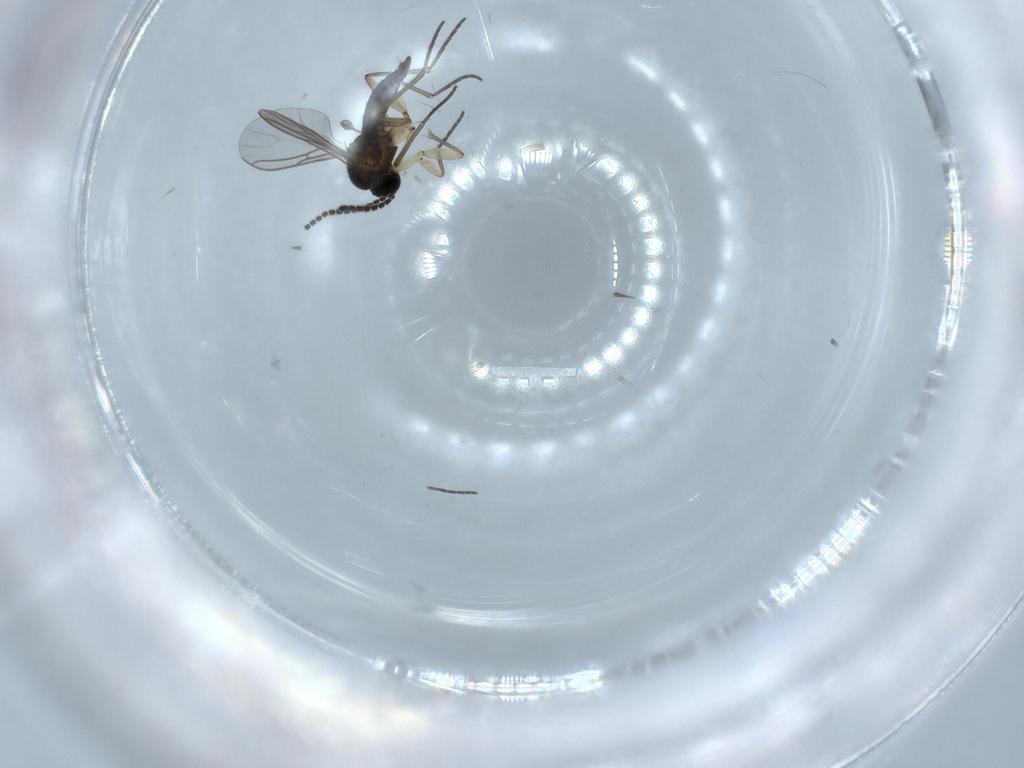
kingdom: Animalia
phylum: Arthropoda
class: Insecta
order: Diptera
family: Sciaridae
